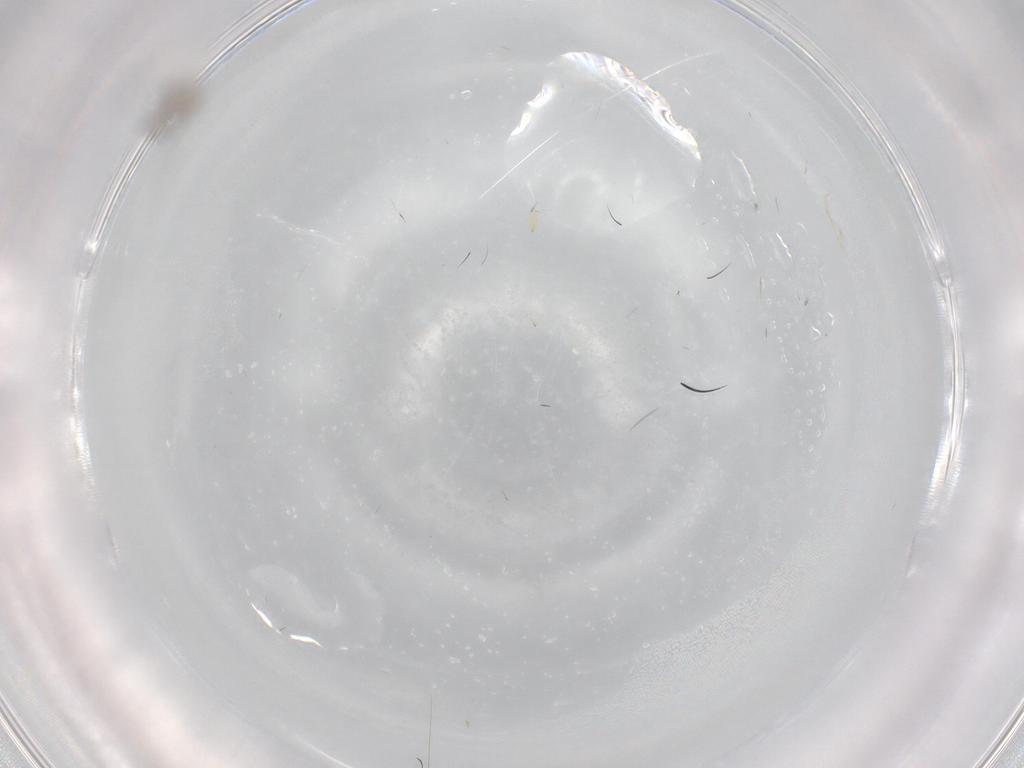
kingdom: Animalia
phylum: Arthropoda
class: Insecta
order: Diptera
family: Phoridae
